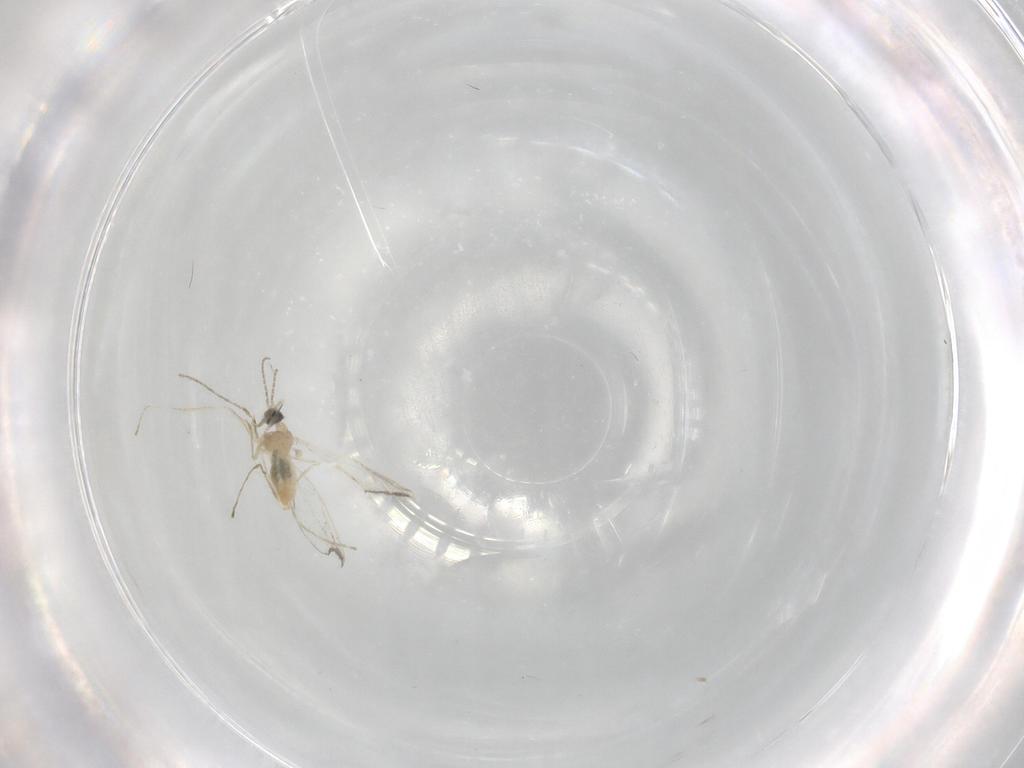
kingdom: Animalia
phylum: Arthropoda
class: Insecta
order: Diptera
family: Cecidomyiidae
